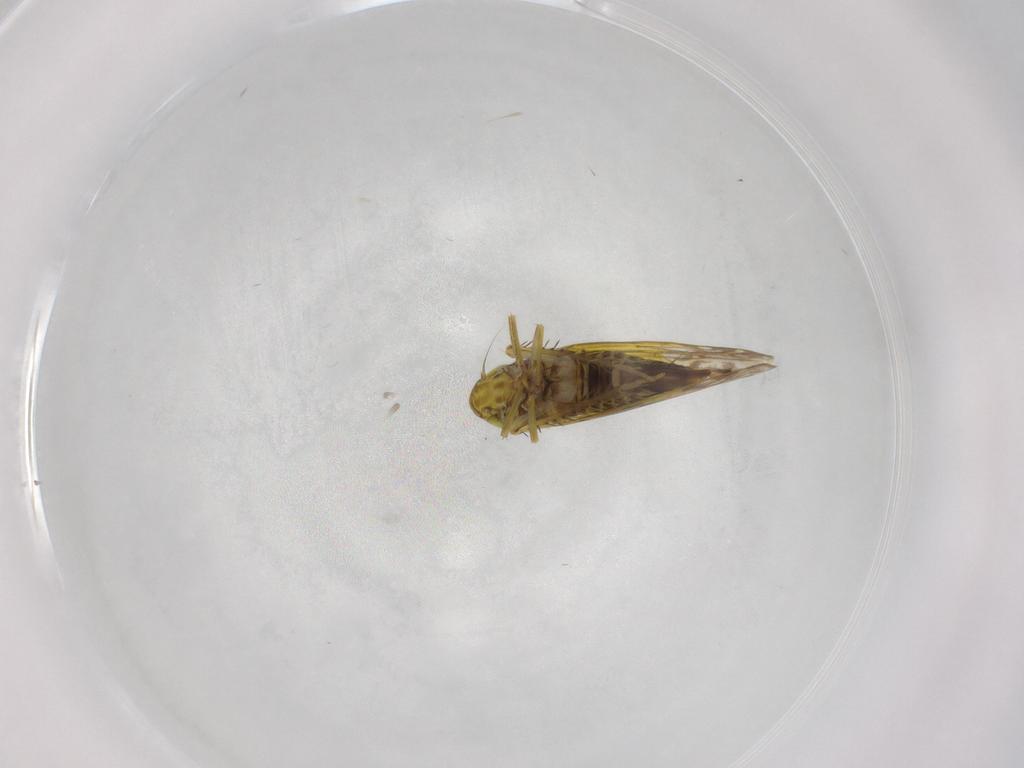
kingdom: Animalia
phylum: Arthropoda
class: Insecta
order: Hemiptera
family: Cicadellidae
